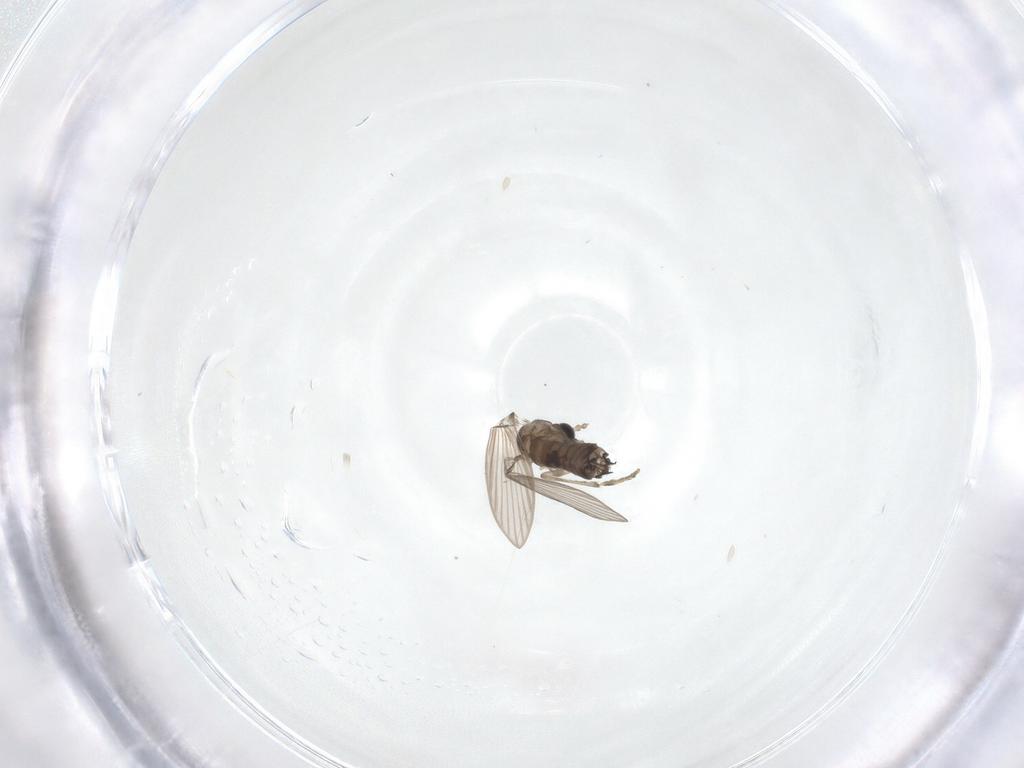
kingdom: Animalia
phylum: Arthropoda
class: Insecta
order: Diptera
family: Psychodidae
